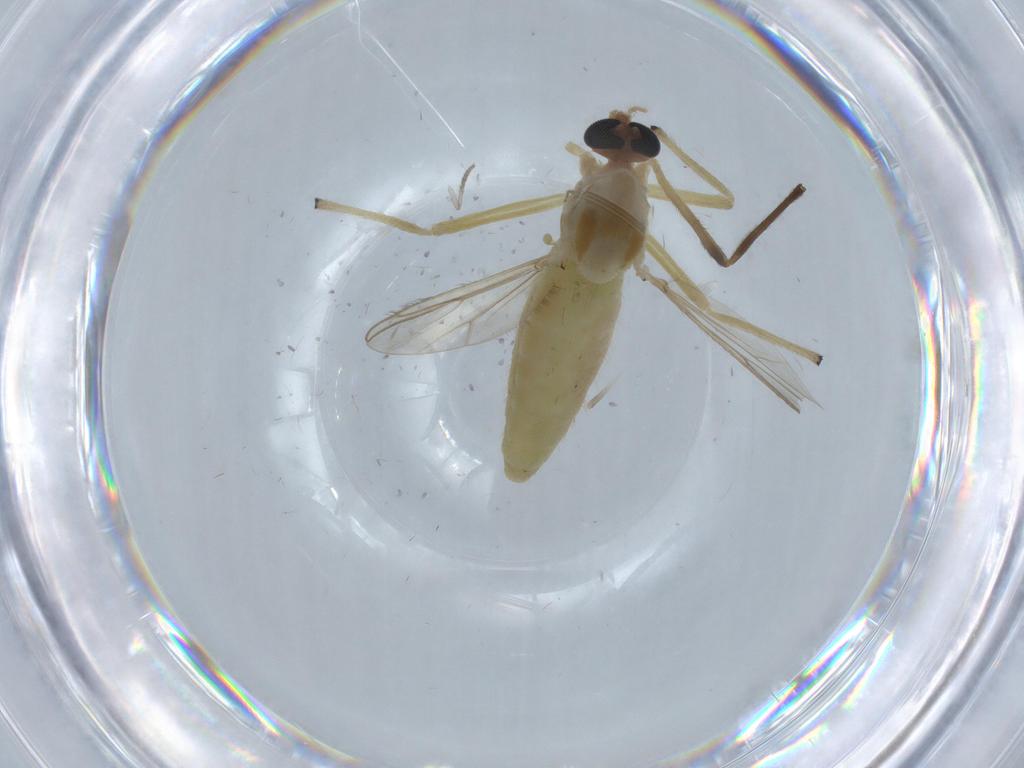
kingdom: Animalia
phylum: Arthropoda
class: Insecta
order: Diptera
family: Chironomidae
